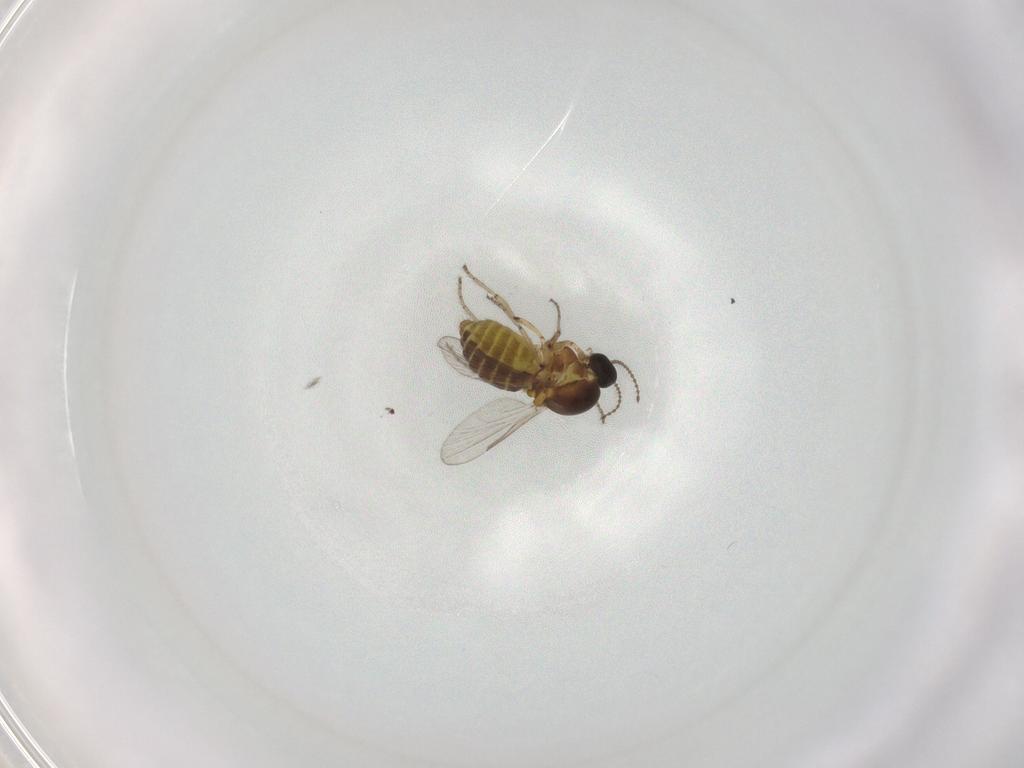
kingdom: Animalia
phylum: Arthropoda
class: Insecta
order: Diptera
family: Ceratopogonidae
